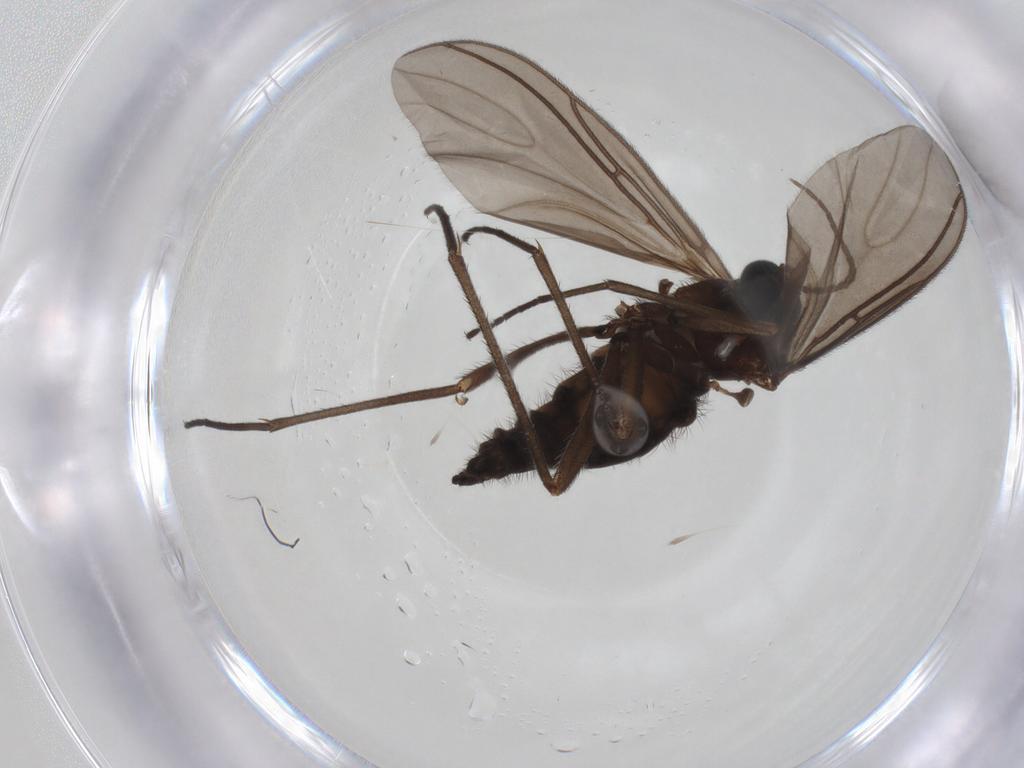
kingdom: Animalia
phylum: Arthropoda
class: Insecta
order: Diptera
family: Sciaridae
